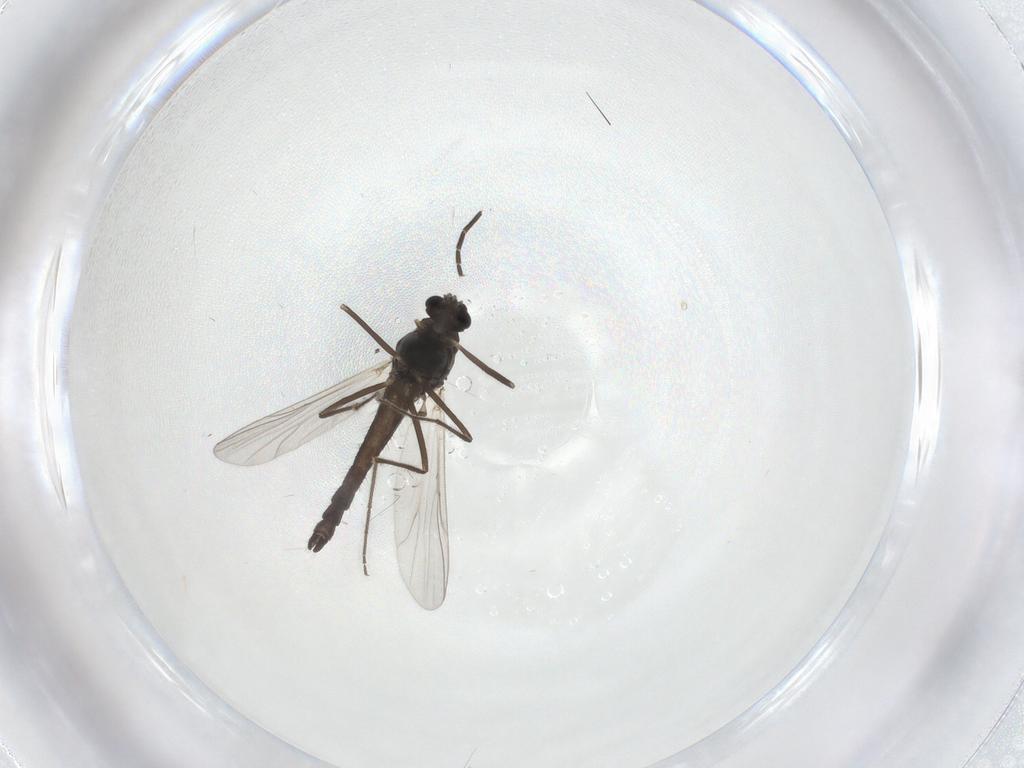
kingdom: Animalia
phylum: Arthropoda
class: Insecta
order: Diptera
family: Chironomidae
